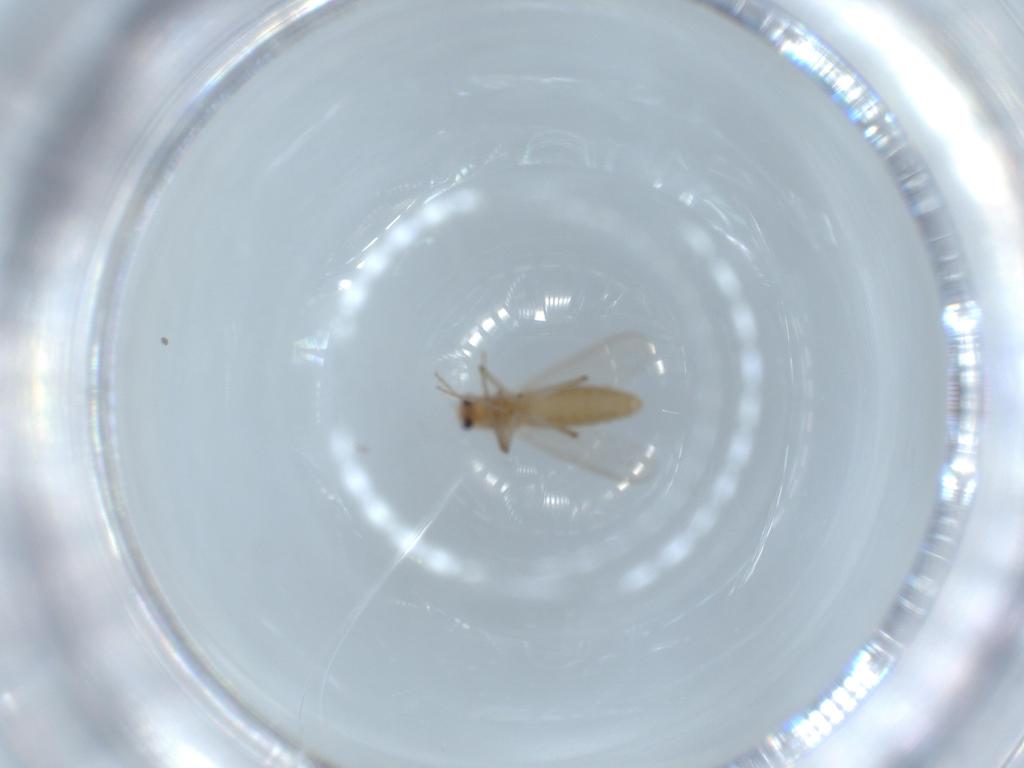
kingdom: Animalia
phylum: Arthropoda
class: Insecta
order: Diptera
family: Chironomidae
